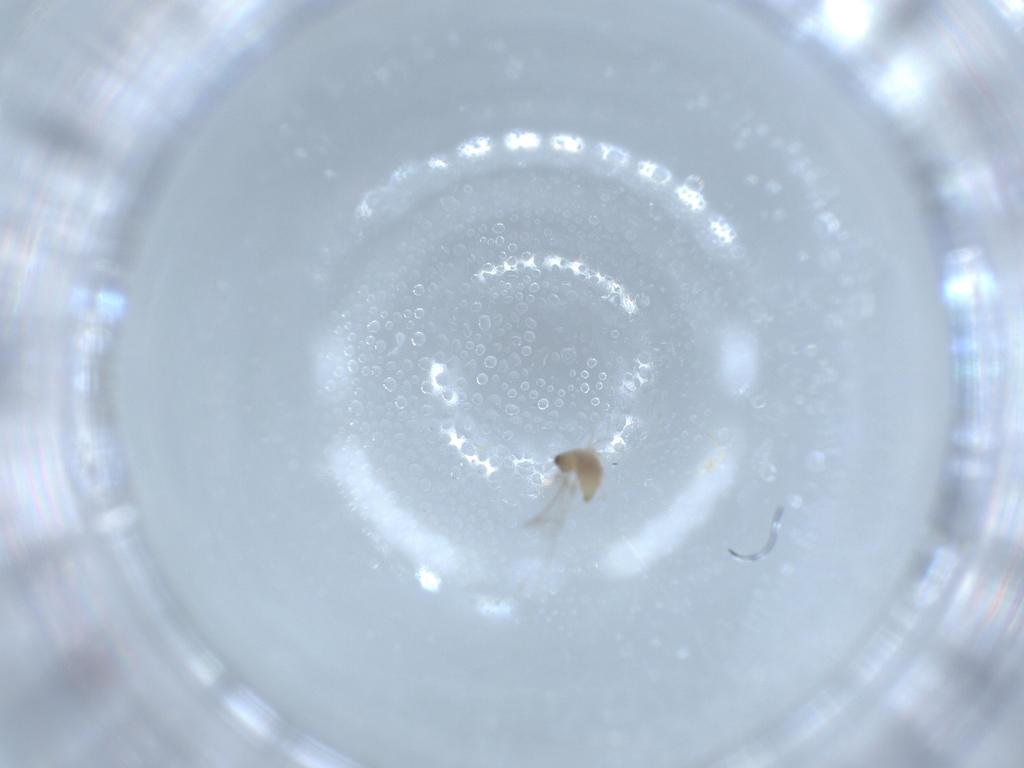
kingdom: Animalia
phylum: Arthropoda
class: Insecta
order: Diptera
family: Cecidomyiidae
